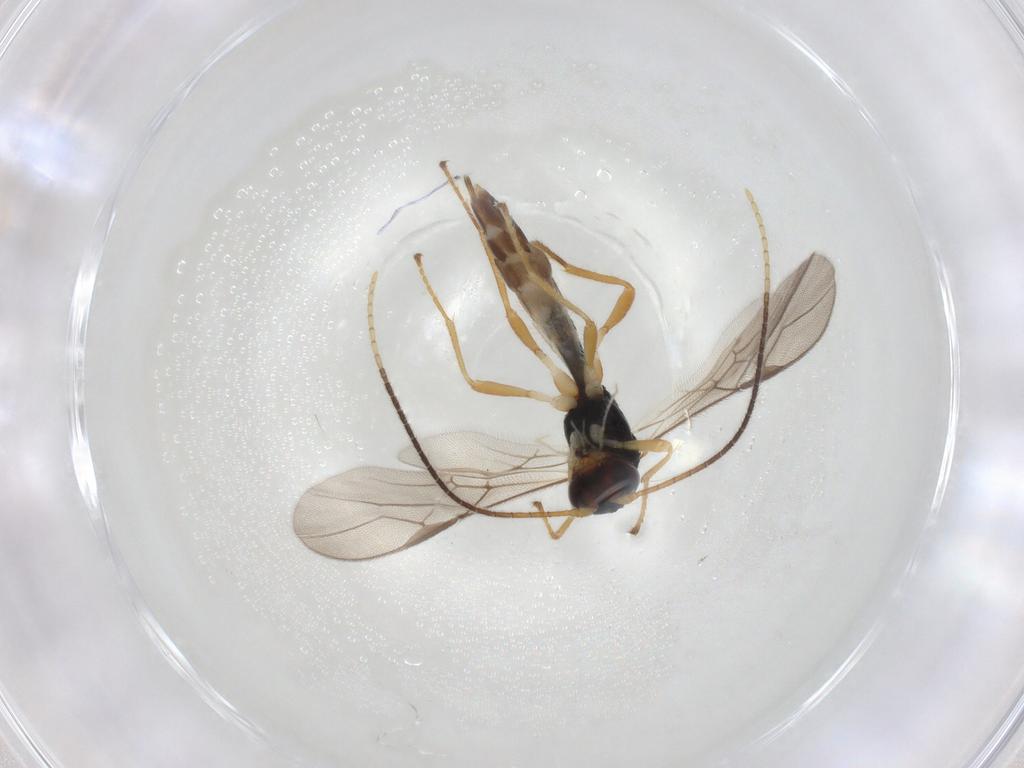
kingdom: Animalia
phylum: Arthropoda
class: Insecta
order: Hymenoptera
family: Braconidae
